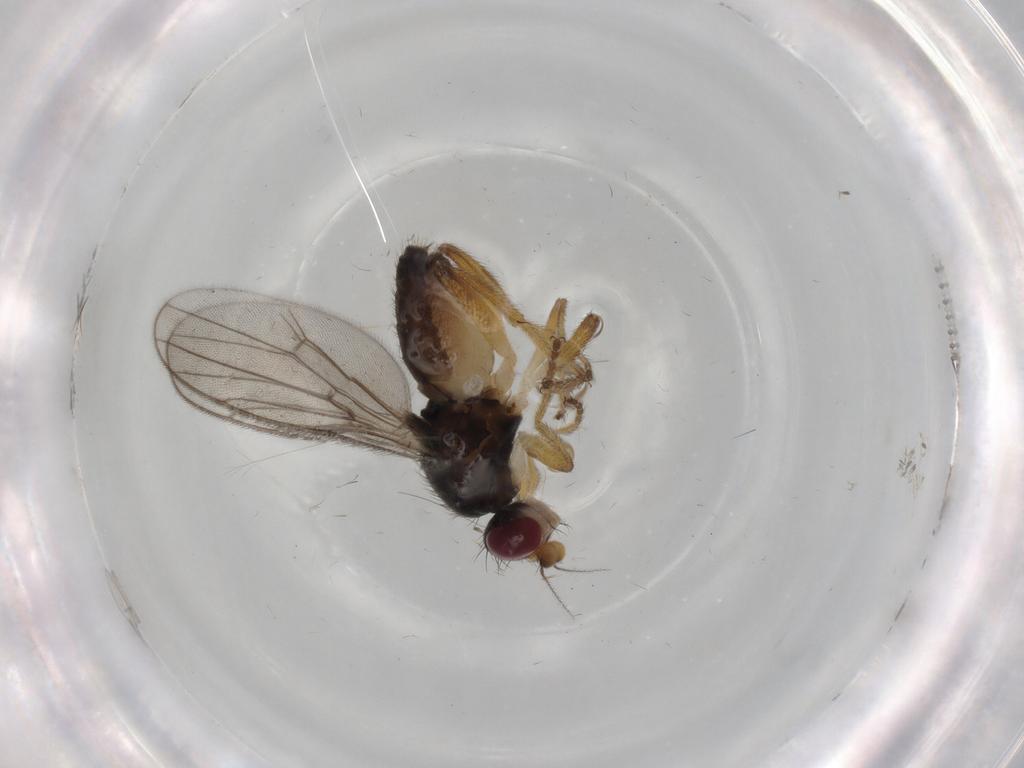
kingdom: Animalia
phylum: Arthropoda
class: Insecta
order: Diptera
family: Chloropidae
